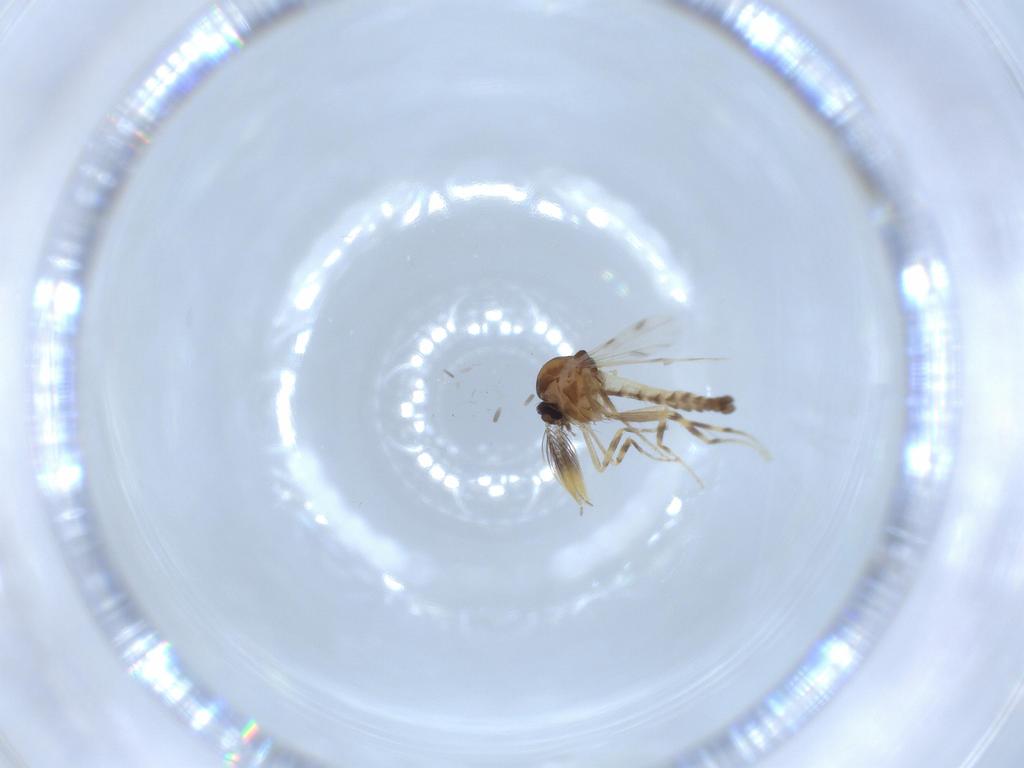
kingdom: Animalia
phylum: Arthropoda
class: Insecta
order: Diptera
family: Ceratopogonidae
